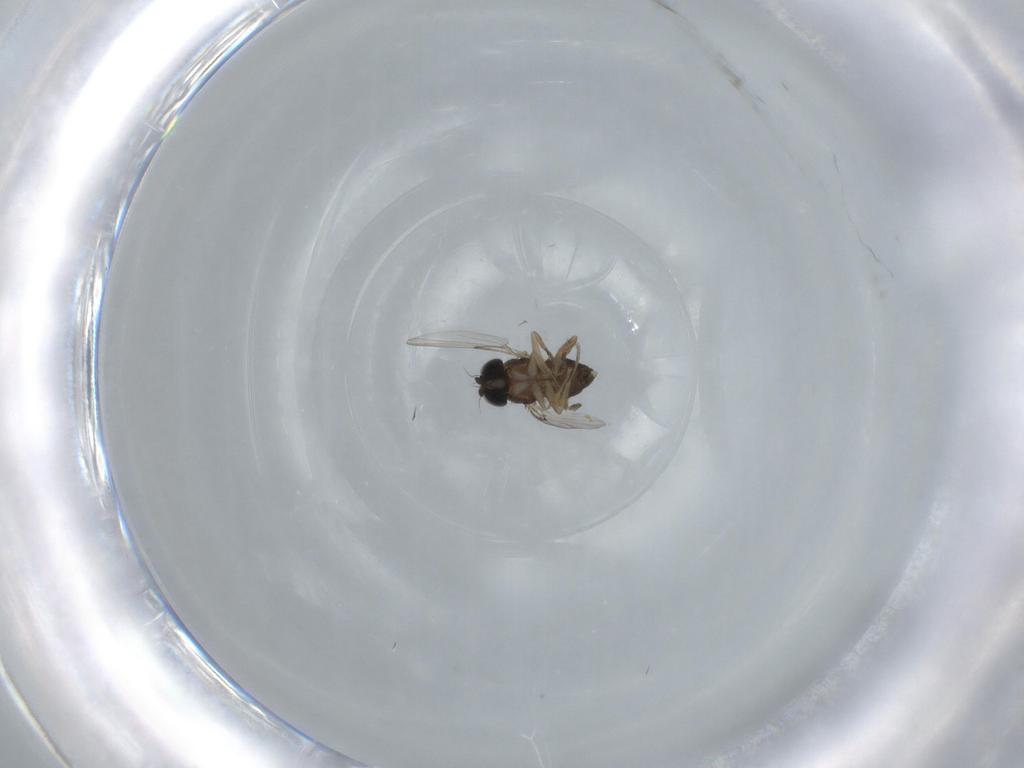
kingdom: Animalia
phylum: Arthropoda
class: Insecta
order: Diptera
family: Phoridae
